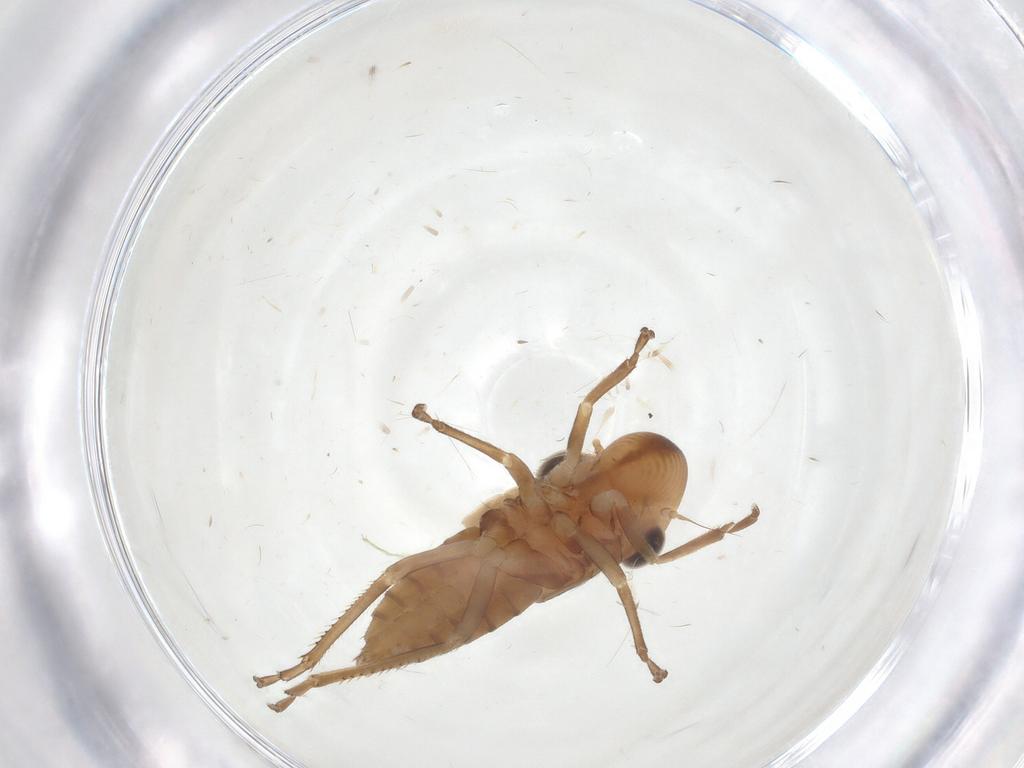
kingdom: Animalia
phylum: Arthropoda
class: Insecta
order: Hemiptera
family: Cicadellidae
